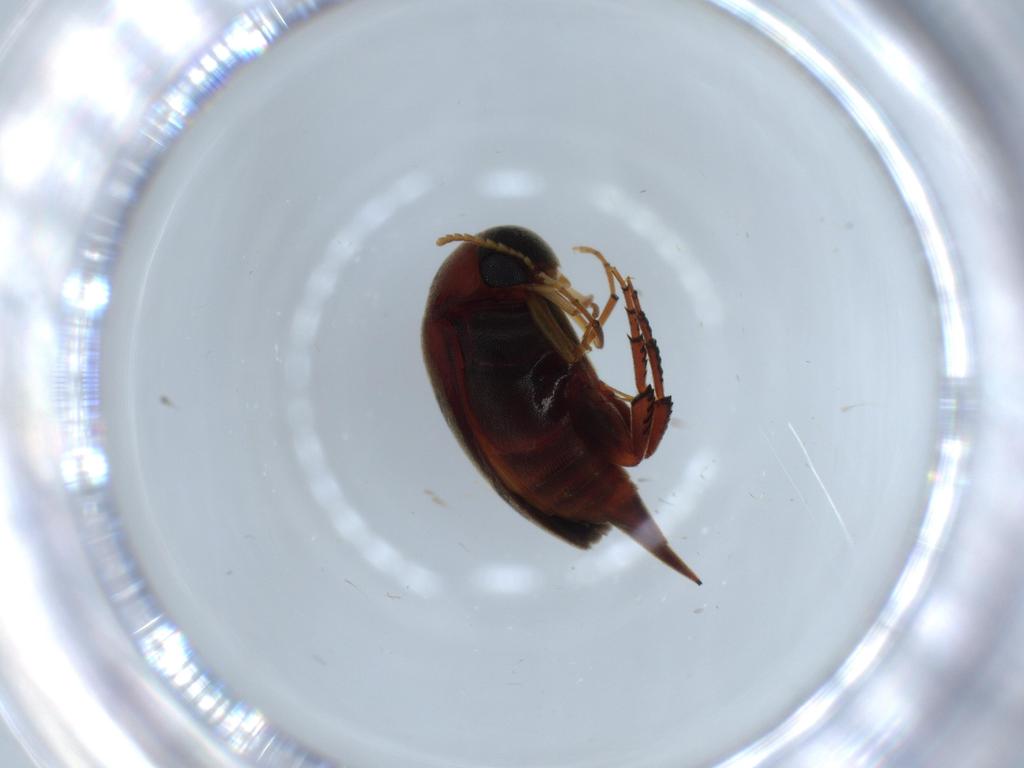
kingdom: Animalia
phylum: Arthropoda
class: Insecta
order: Coleoptera
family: Mordellidae
